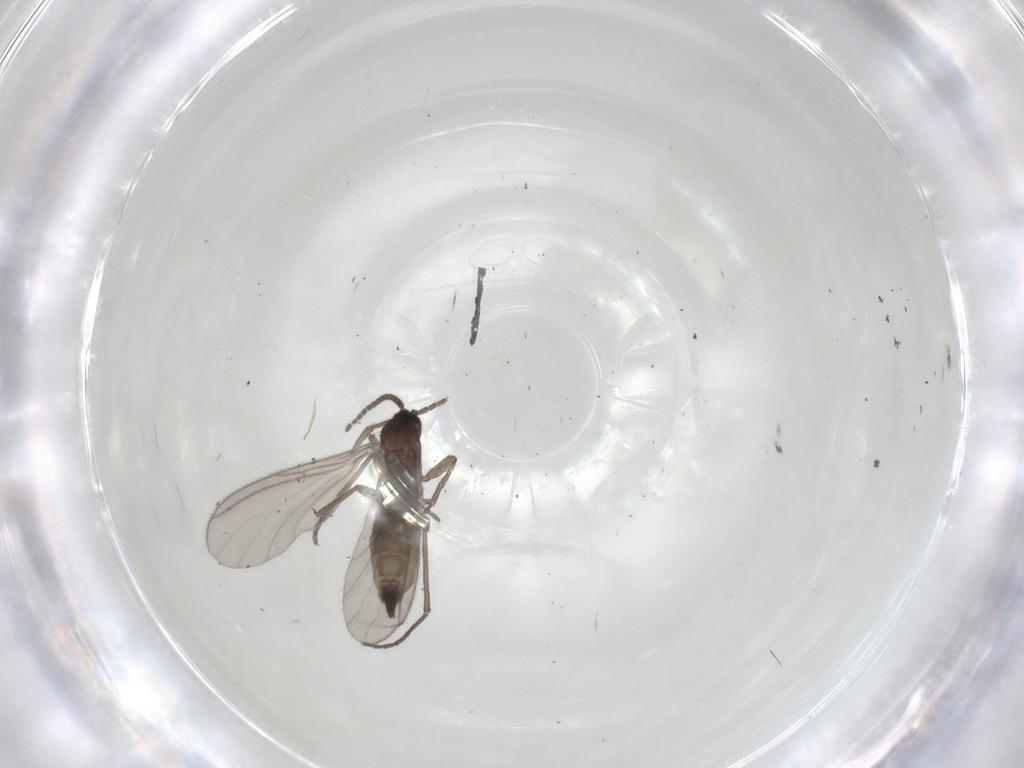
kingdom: Animalia
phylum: Arthropoda
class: Insecta
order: Diptera
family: Sciaridae
